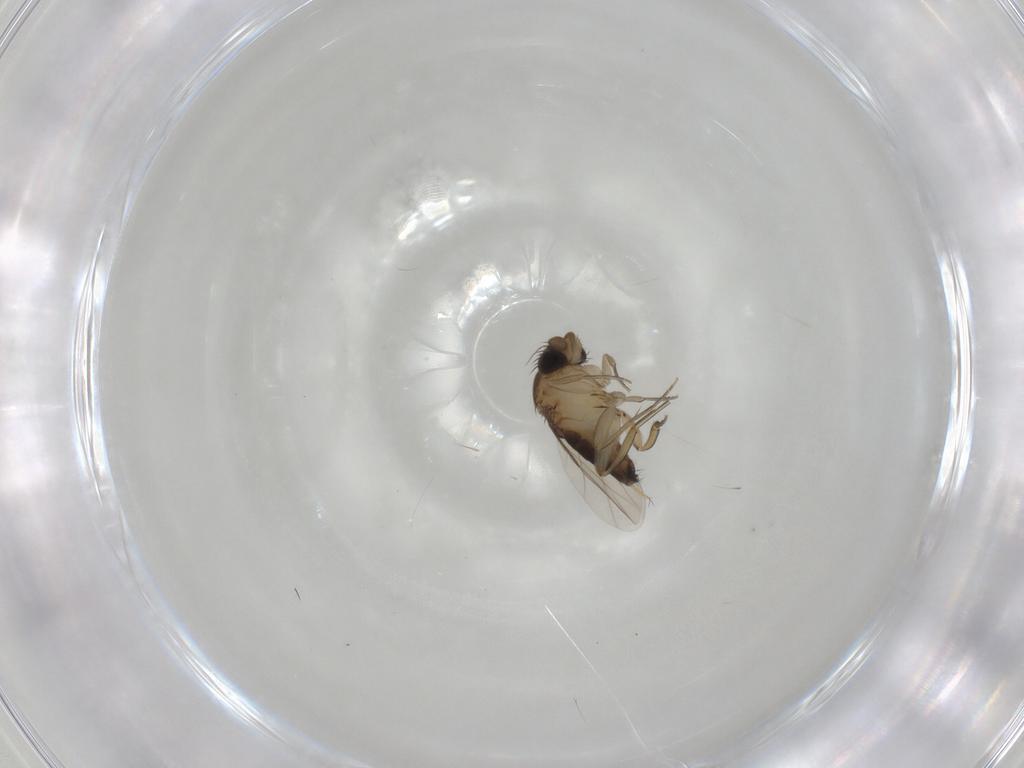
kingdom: Animalia
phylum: Arthropoda
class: Insecta
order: Diptera
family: Phoridae
